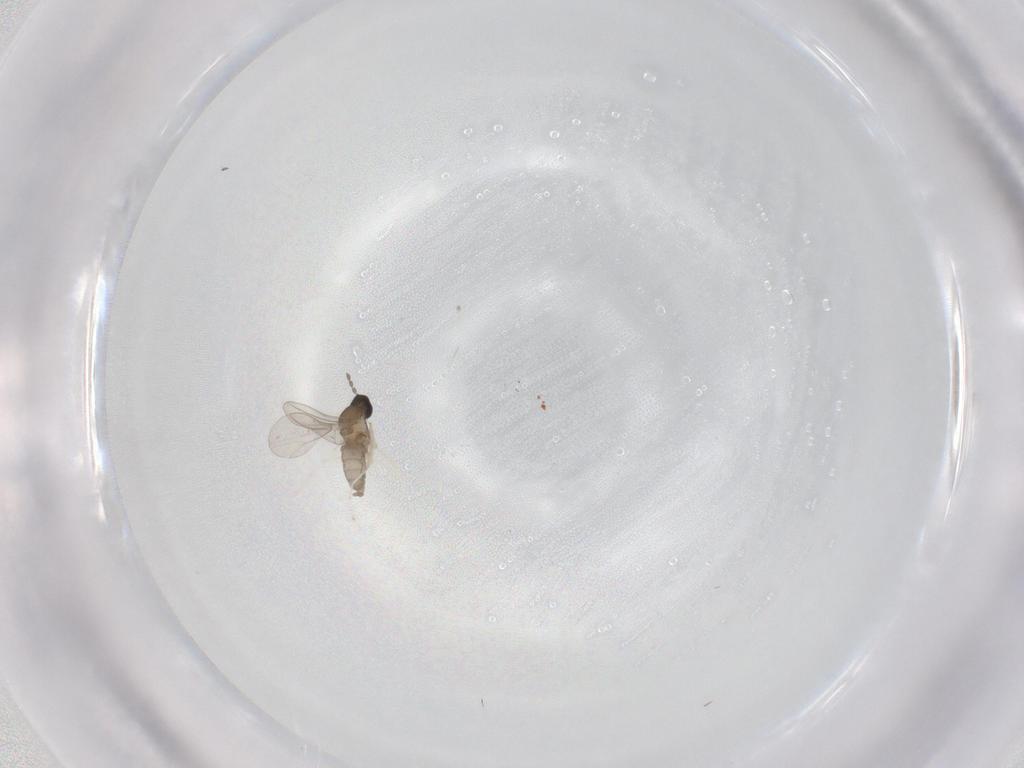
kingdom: Animalia
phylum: Arthropoda
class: Insecta
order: Diptera
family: Cecidomyiidae
